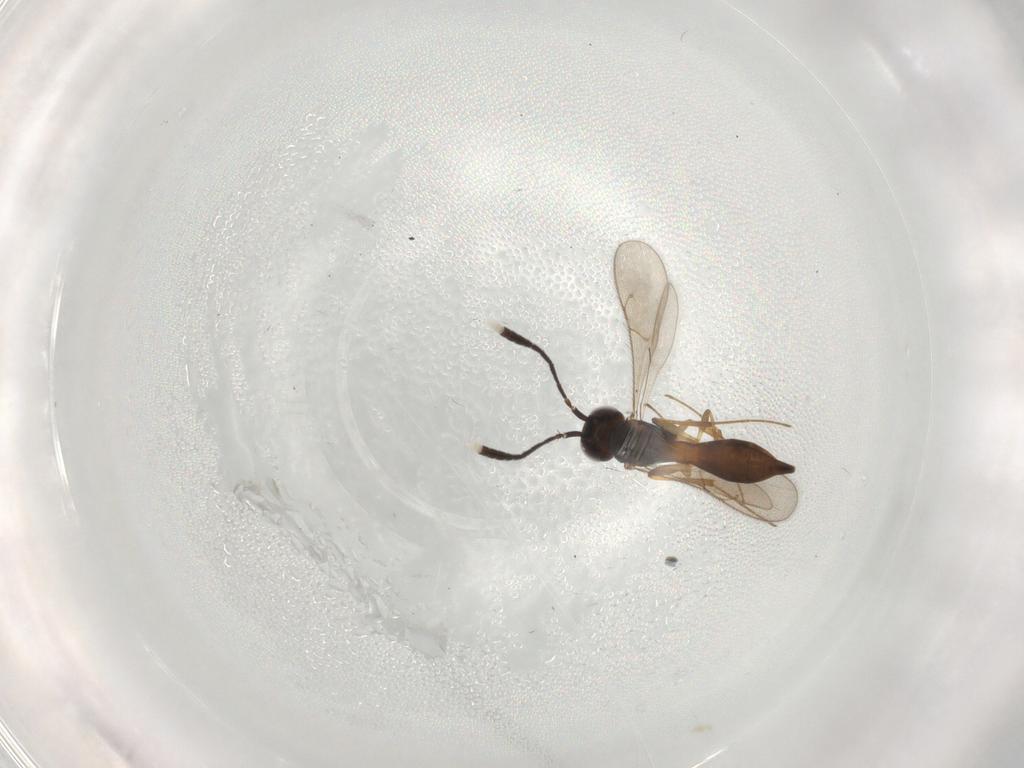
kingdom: Animalia
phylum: Arthropoda
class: Insecta
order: Hymenoptera
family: Scelionidae
